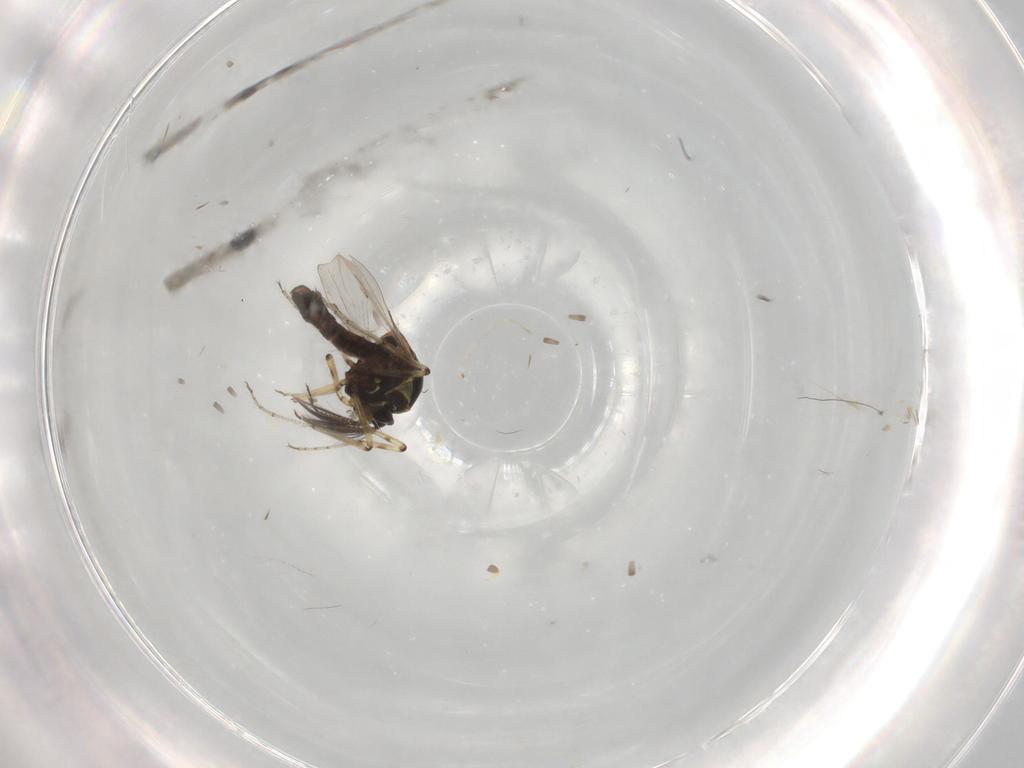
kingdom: Animalia
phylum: Arthropoda
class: Insecta
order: Diptera
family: Ceratopogonidae
